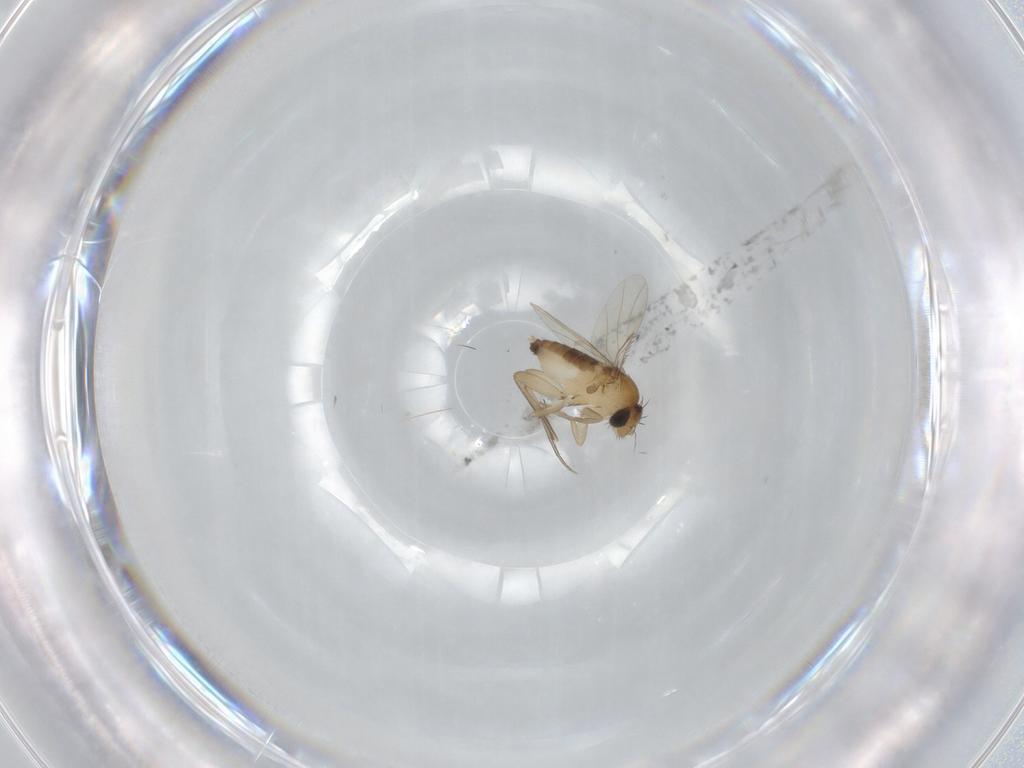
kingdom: Animalia
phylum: Arthropoda
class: Insecta
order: Diptera
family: Phoridae
